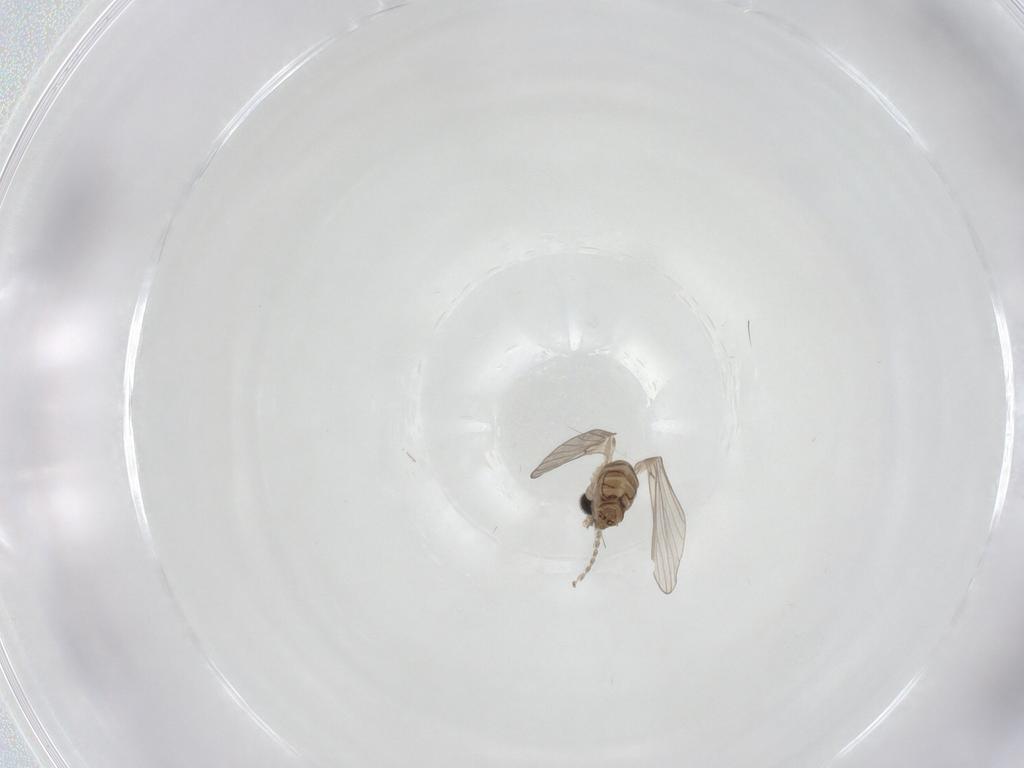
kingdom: Animalia
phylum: Arthropoda
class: Insecta
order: Diptera
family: Psychodidae
